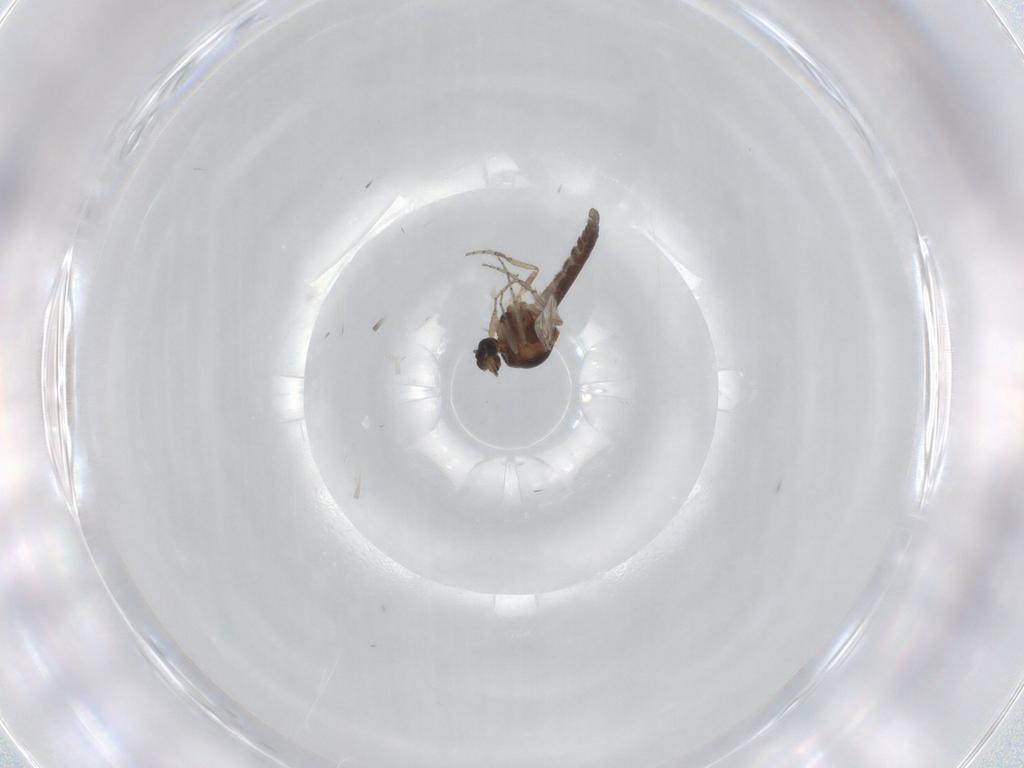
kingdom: Animalia
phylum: Arthropoda
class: Insecta
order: Diptera
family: Ceratopogonidae
